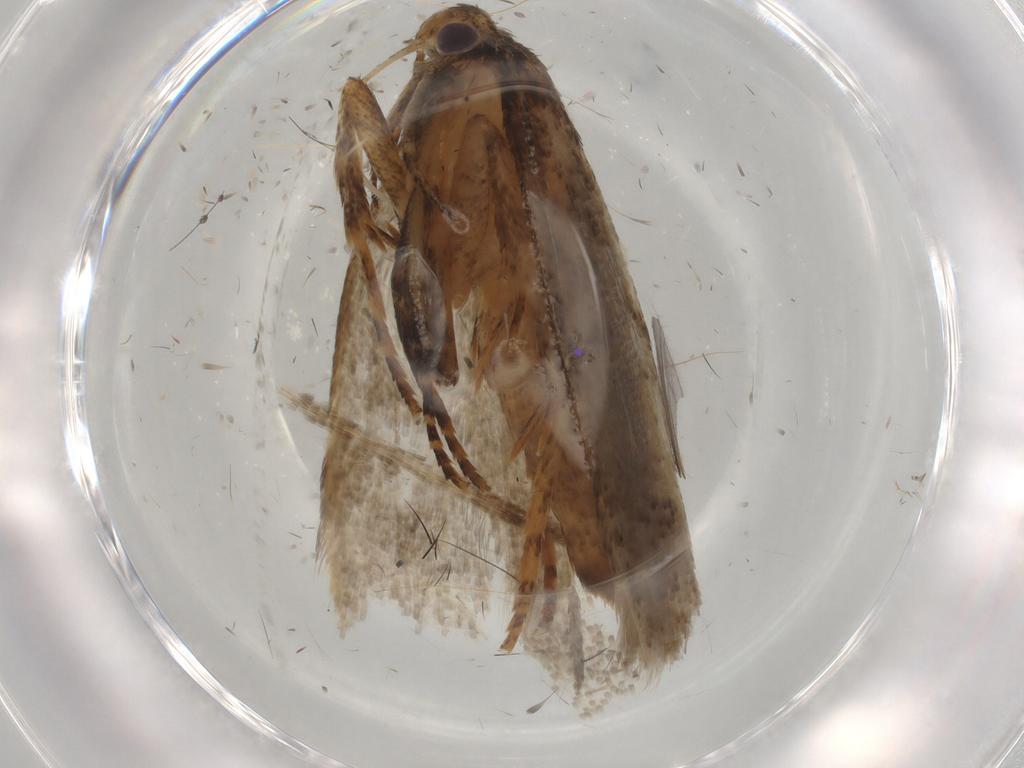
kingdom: Animalia
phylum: Arthropoda
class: Insecta
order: Lepidoptera
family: Gelechiidae
